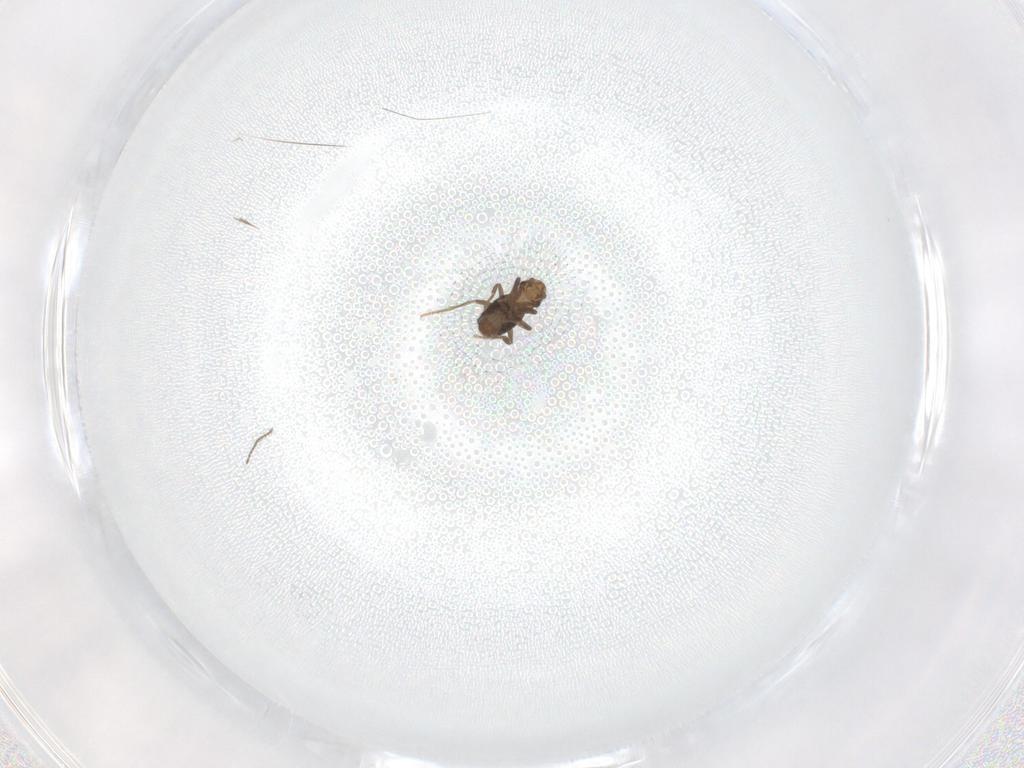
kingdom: Animalia
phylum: Arthropoda
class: Insecta
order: Diptera
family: Phoridae
